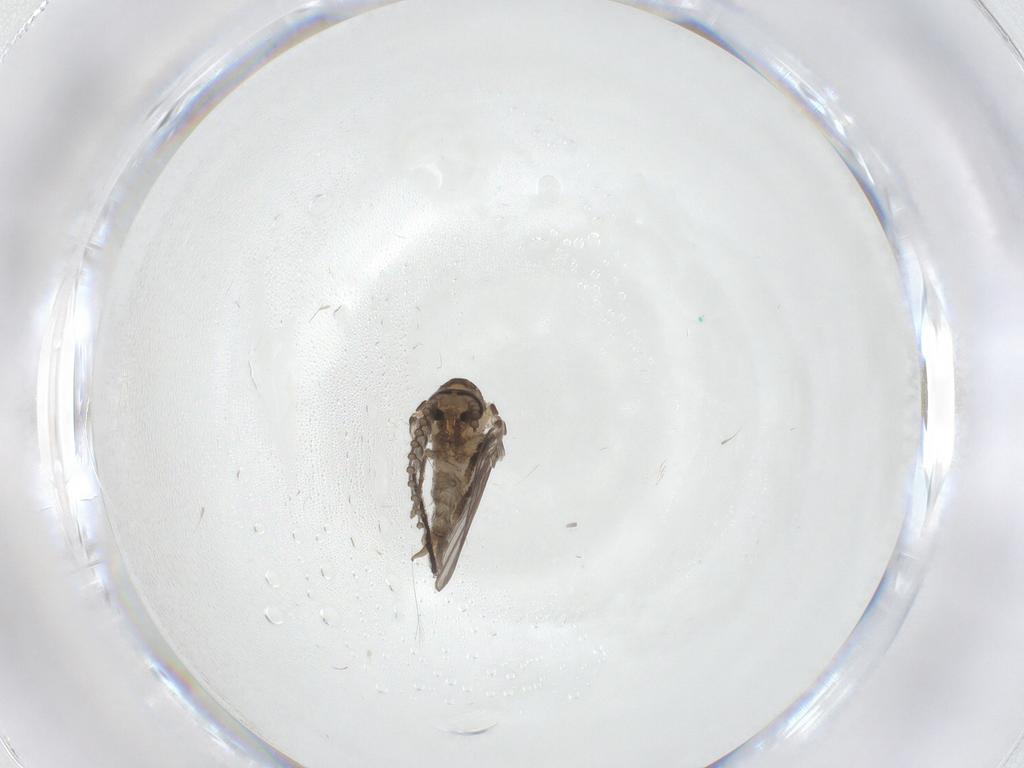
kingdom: Animalia
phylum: Arthropoda
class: Insecta
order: Diptera
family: Psychodidae
